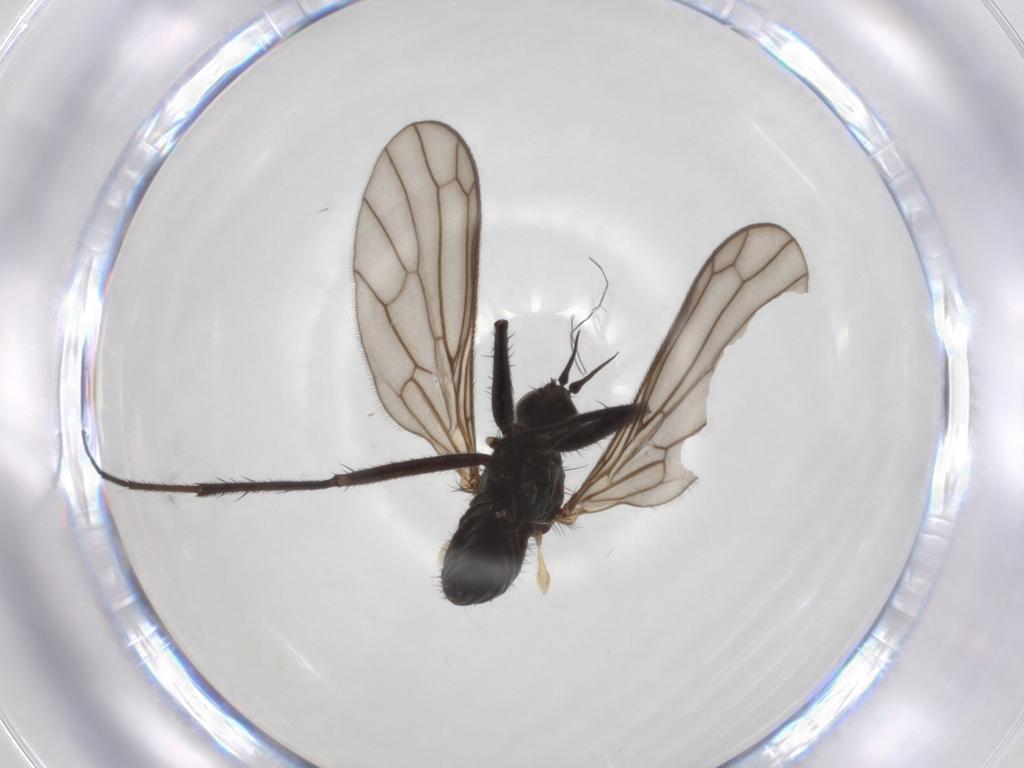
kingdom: Animalia
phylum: Arthropoda
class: Insecta
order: Diptera
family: Empididae
